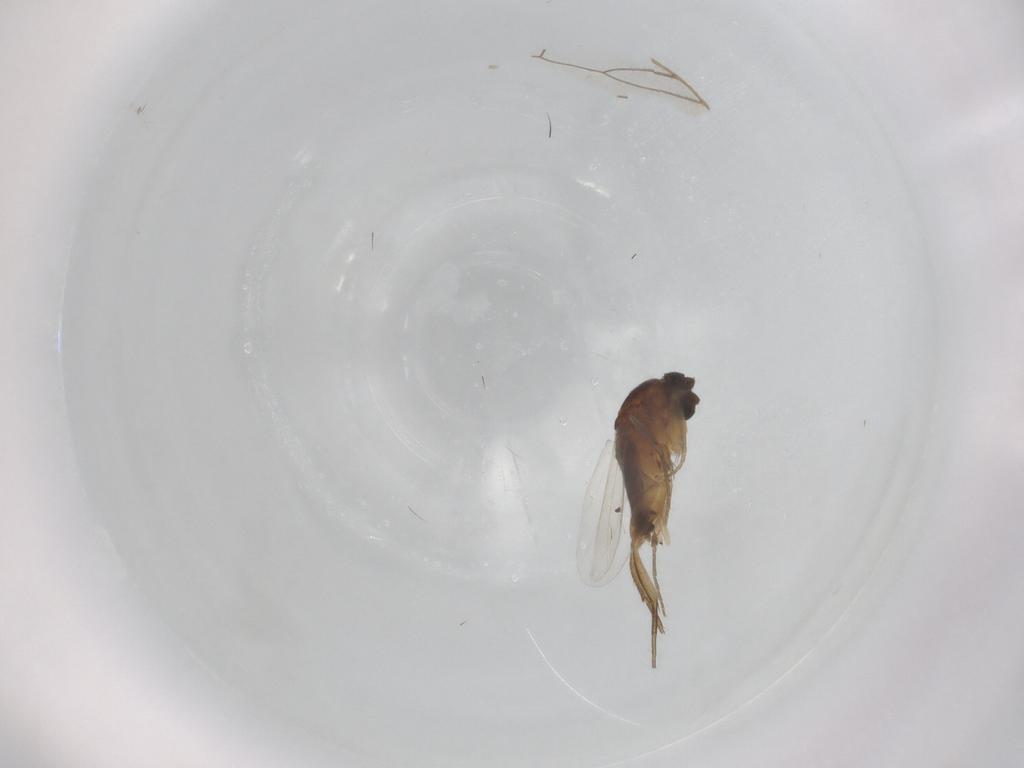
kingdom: Animalia
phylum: Arthropoda
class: Insecta
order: Diptera
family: Phoridae
